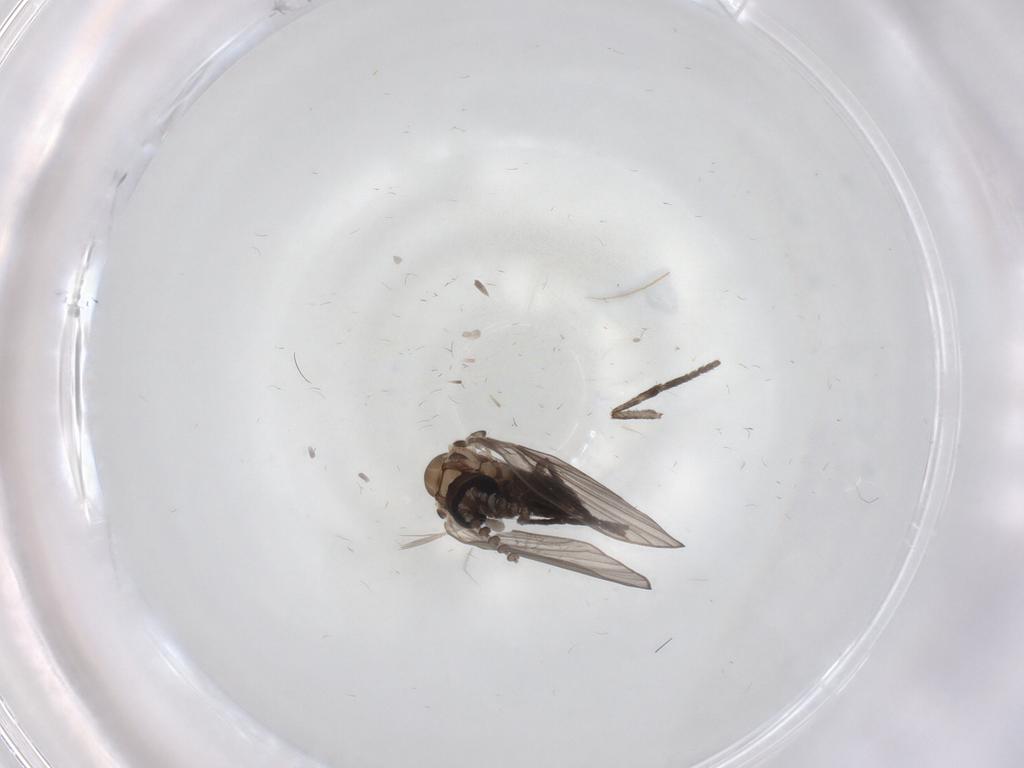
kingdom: Animalia
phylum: Arthropoda
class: Insecta
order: Diptera
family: Psychodidae
